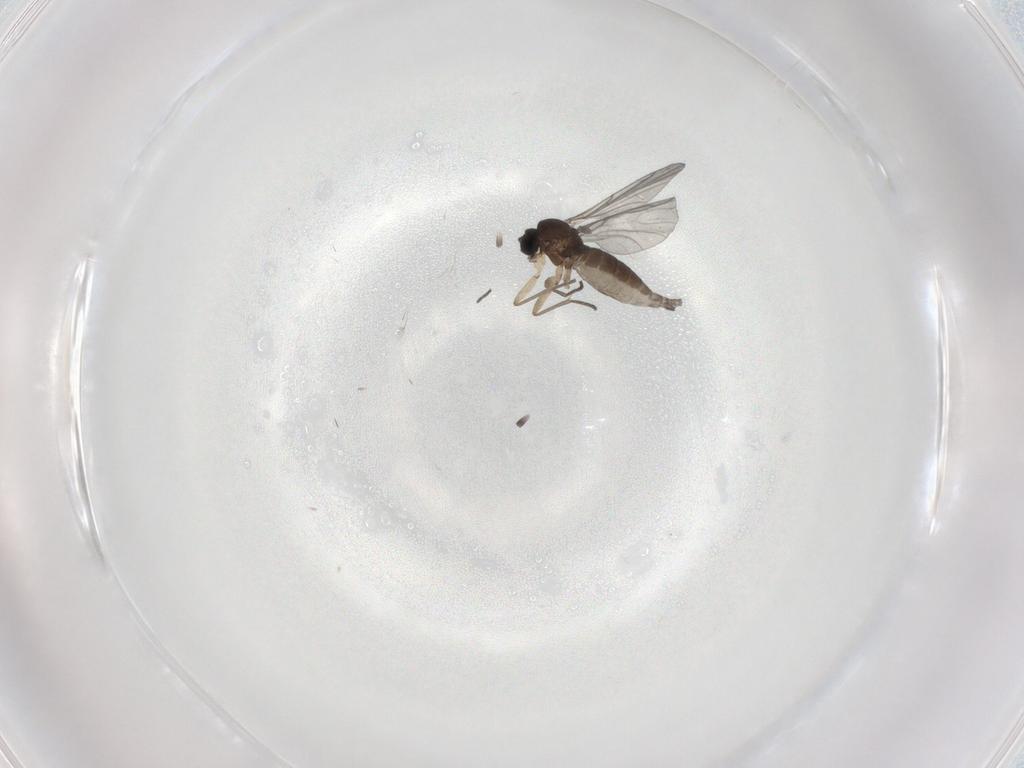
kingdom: Animalia
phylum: Arthropoda
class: Insecta
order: Diptera
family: Sciaridae
